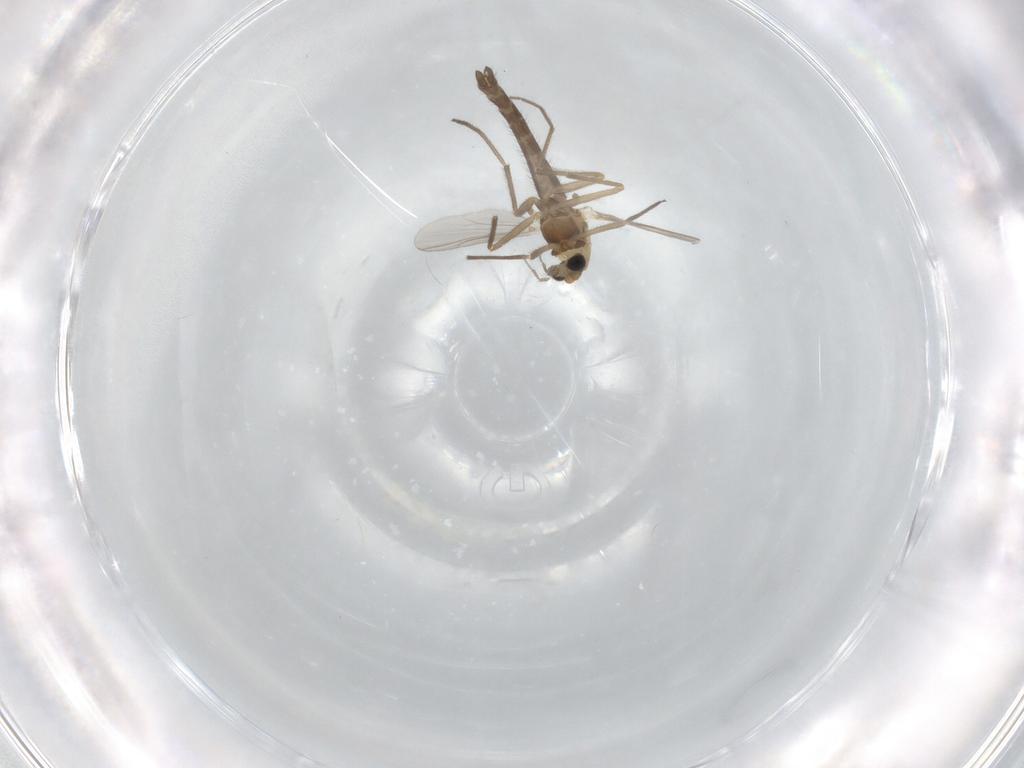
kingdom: Animalia
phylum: Arthropoda
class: Insecta
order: Diptera
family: Chironomidae
